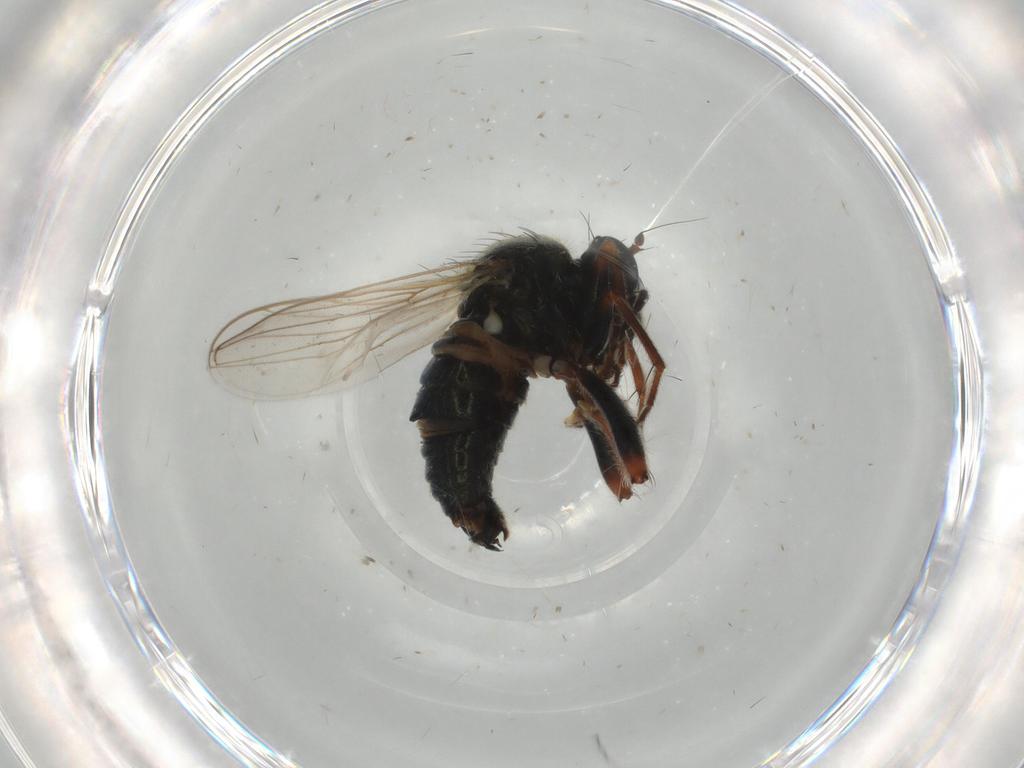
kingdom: Animalia
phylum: Arthropoda
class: Insecta
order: Diptera
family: Hybotidae
